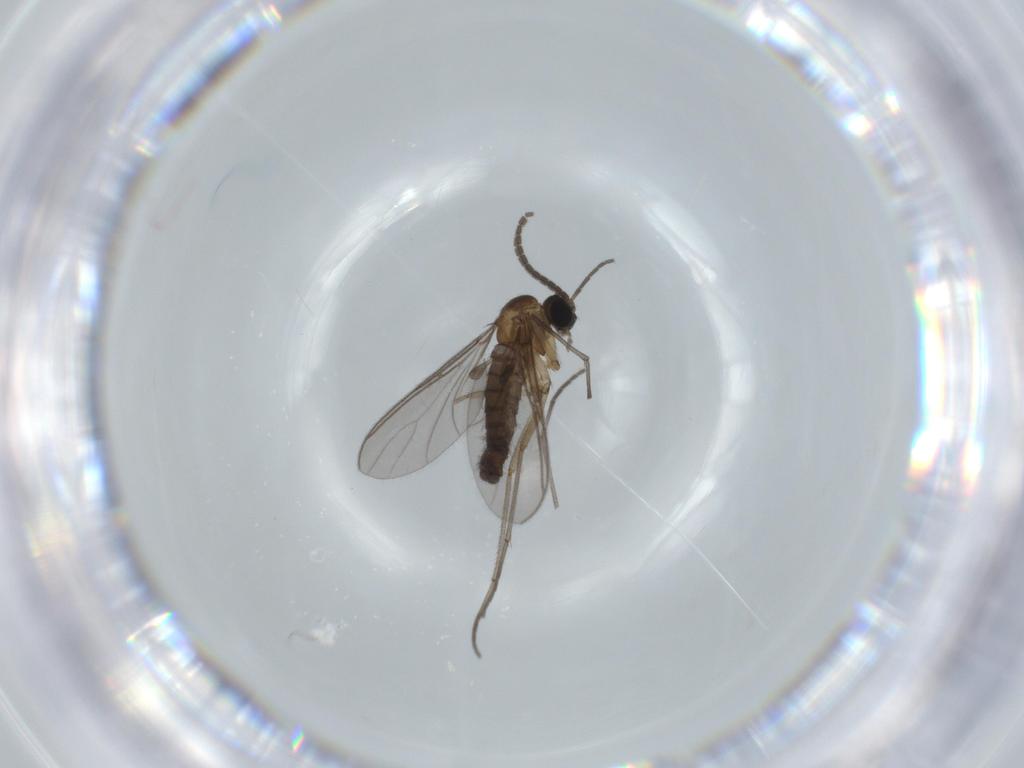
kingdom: Animalia
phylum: Arthropoda
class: Insecta
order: Diptera
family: Sciaridae
